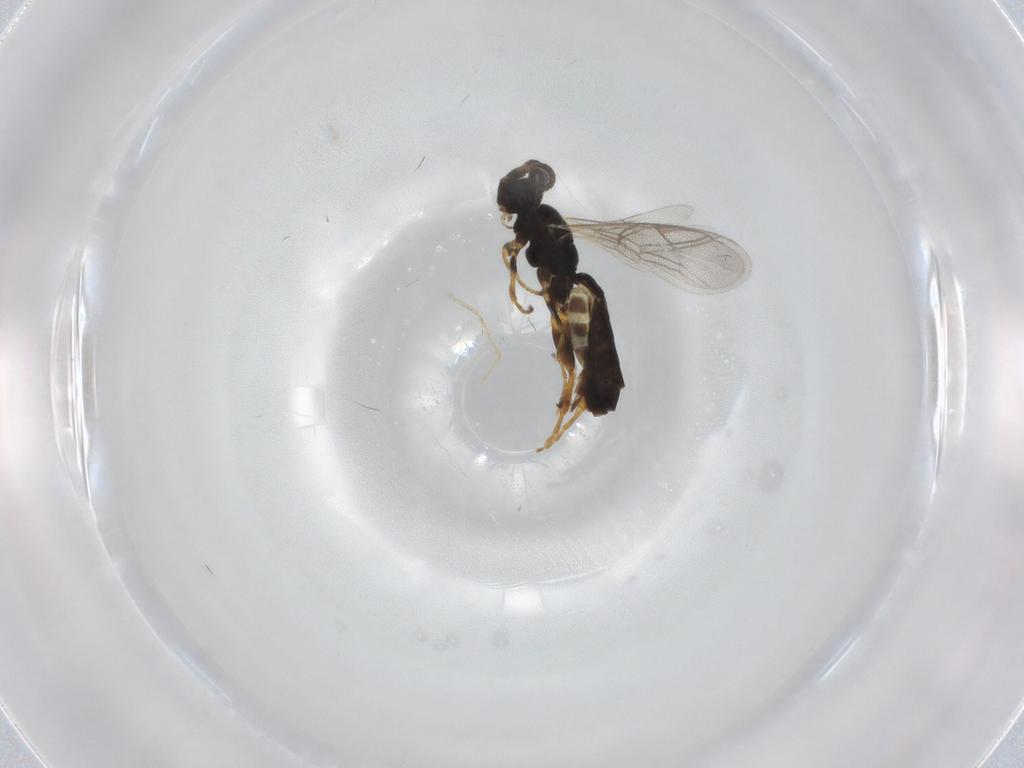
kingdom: Animalia
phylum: Arthropoda
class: Insecta
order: Hymenoptera
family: Ichneumonidae
